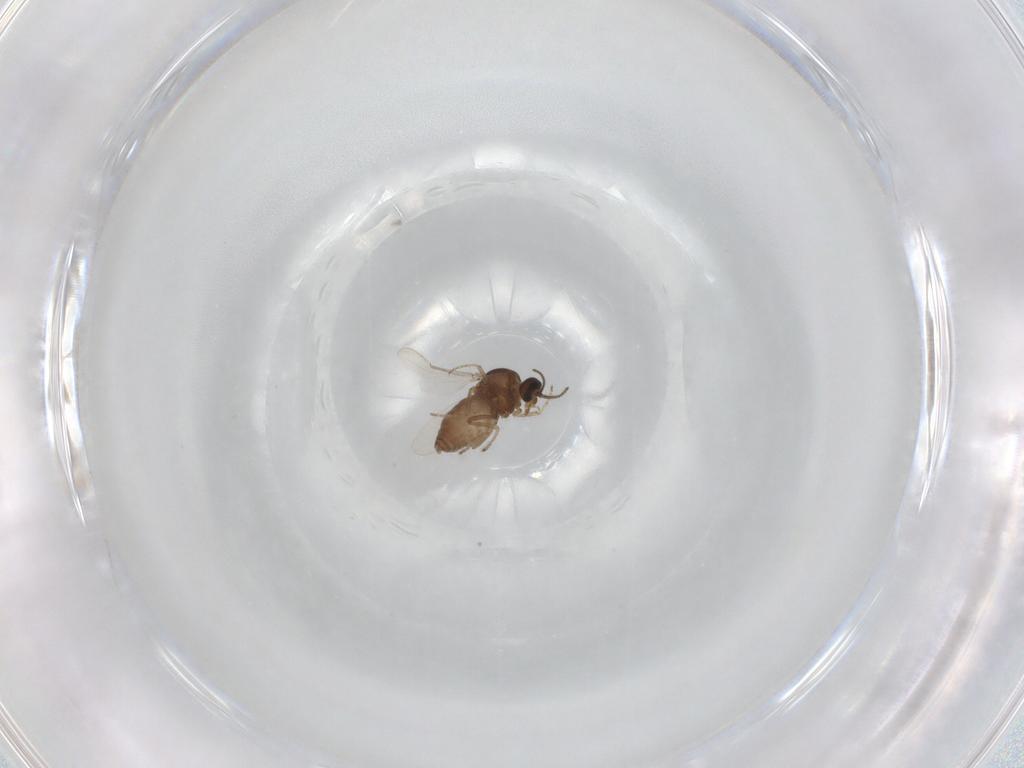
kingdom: Animalia
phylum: Arthropoda
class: Insecta
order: Diptera
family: Ceratopogonidae
